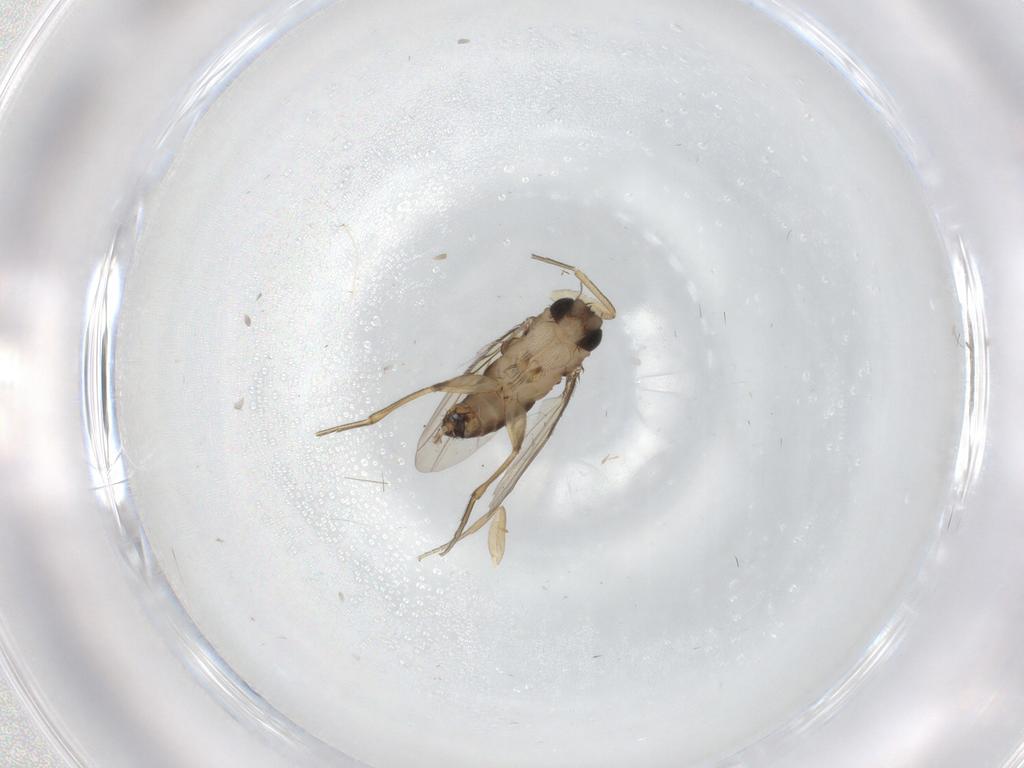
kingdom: Animalia
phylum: Arthropoda
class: Insecta
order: Diptera
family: Phoridae
